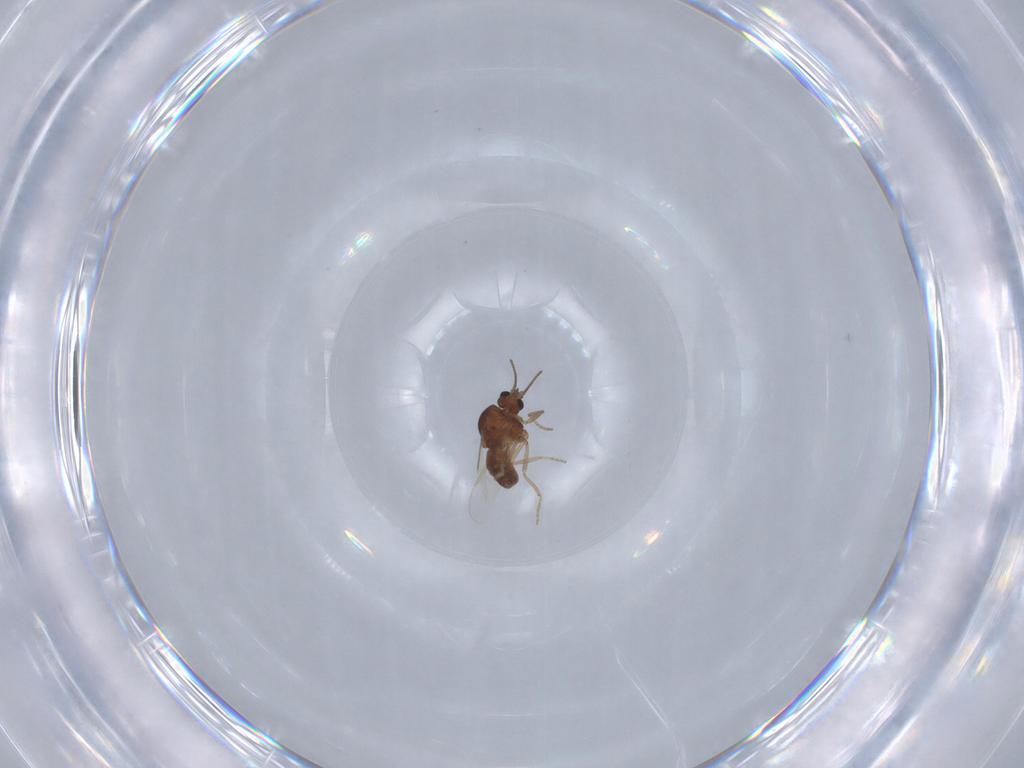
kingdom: Animalia
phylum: Arthropoda
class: Insecta
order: Diptera
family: Ceratopogonidae
